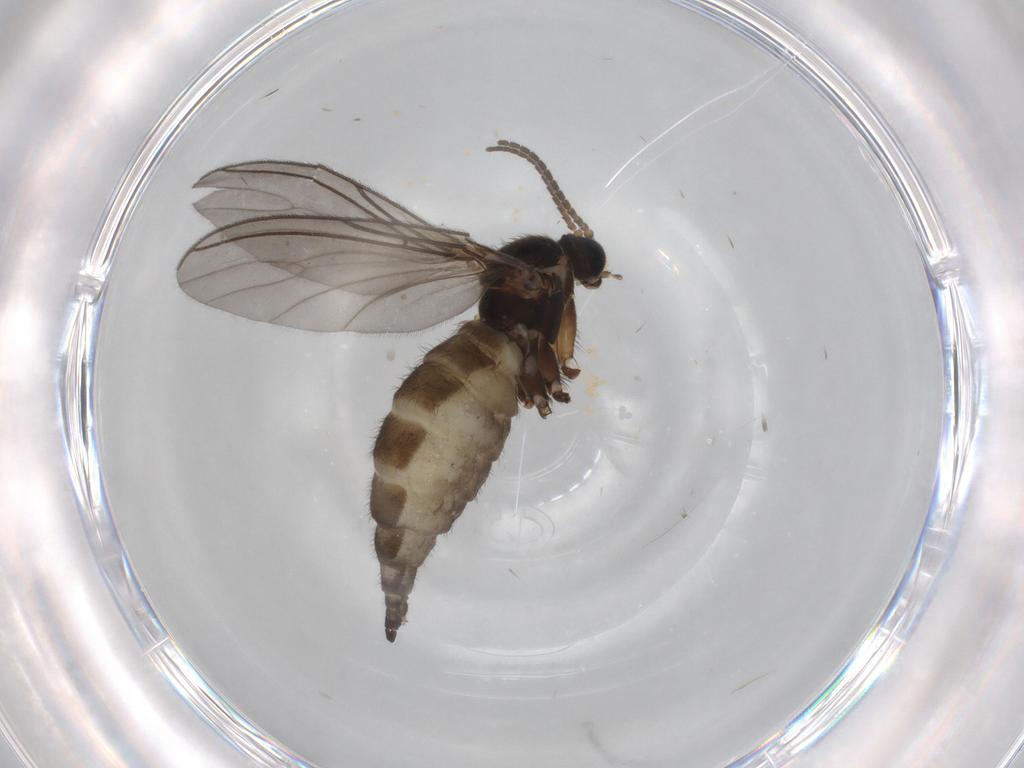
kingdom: Animalia
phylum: Arthropoda
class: Insecta
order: Diptera
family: Sciaridae
